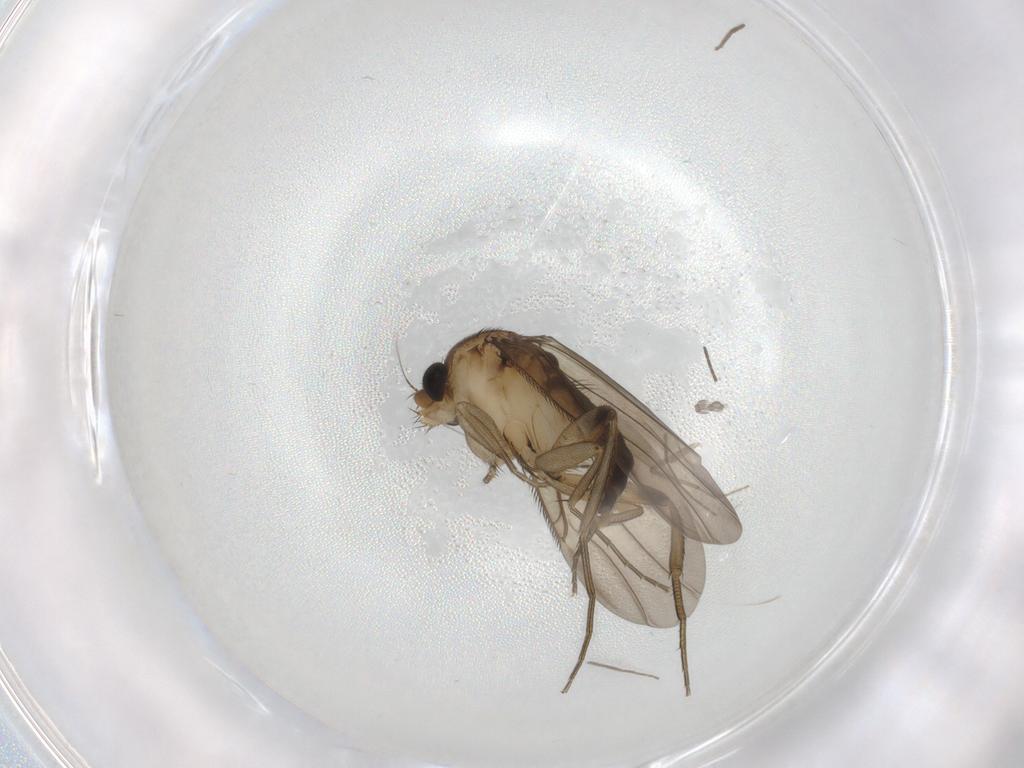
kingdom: Animalia
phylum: Arthropoda
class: Insecta
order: Diptera
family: Phoridae
